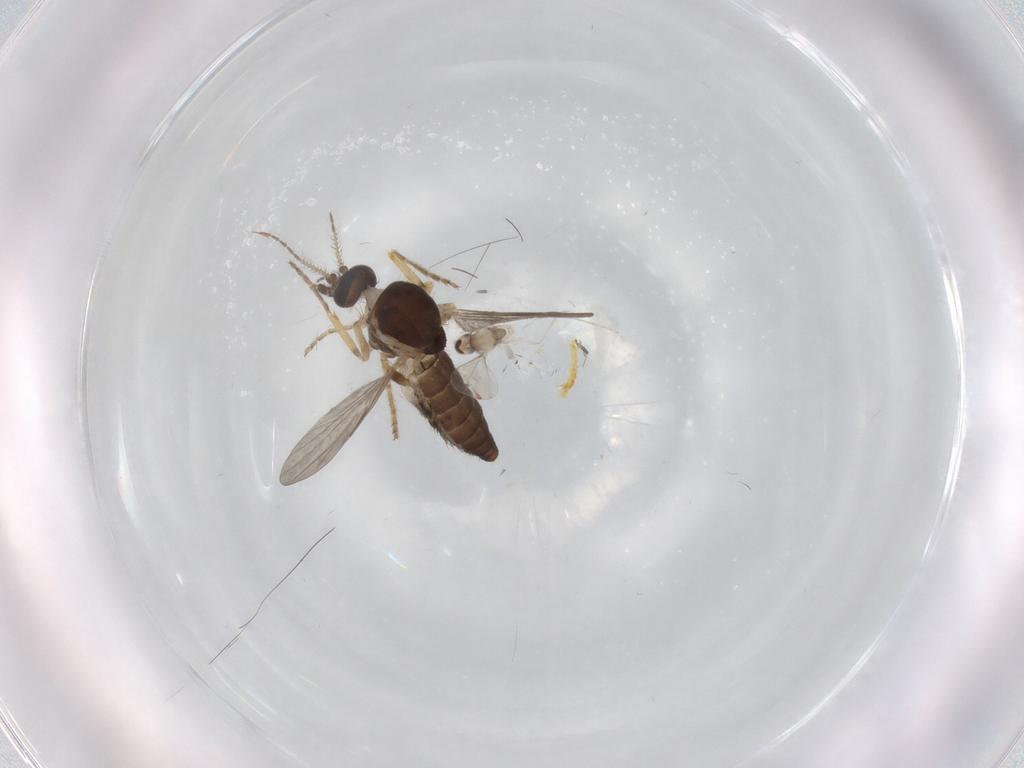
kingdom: Animalia
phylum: Arthropoda
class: Insecta
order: Diptera
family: Ceratopogonidae
